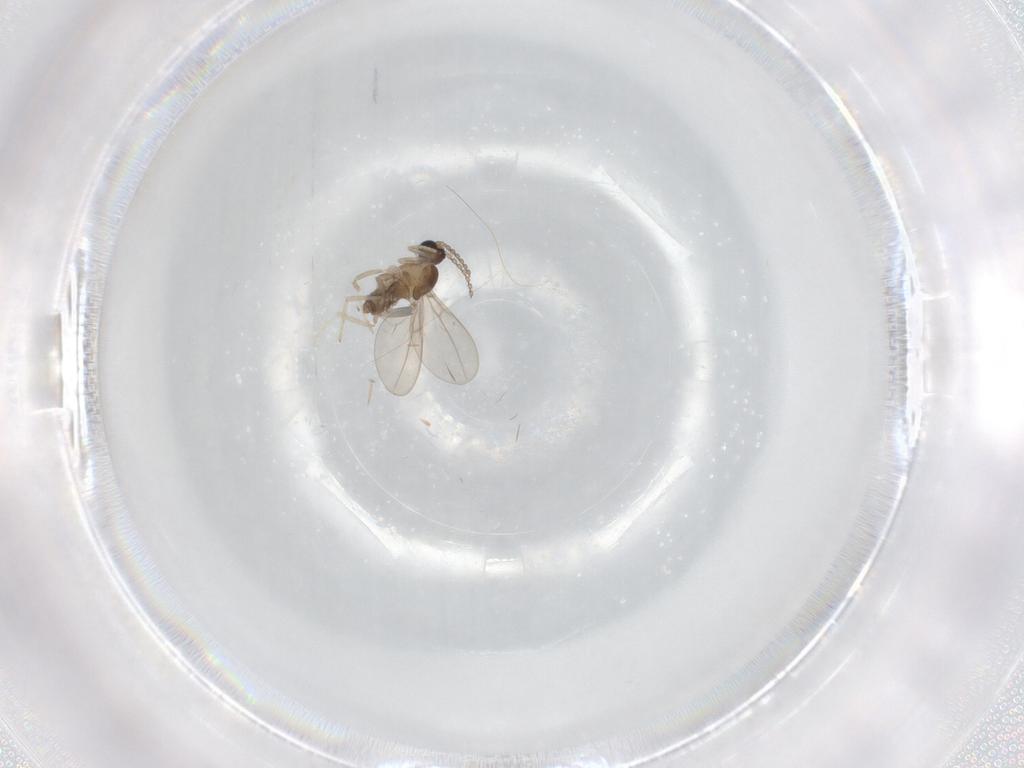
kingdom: Animalia
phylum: Arthropoda
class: Insecta
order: Diptera
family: Cecidomyiidae
